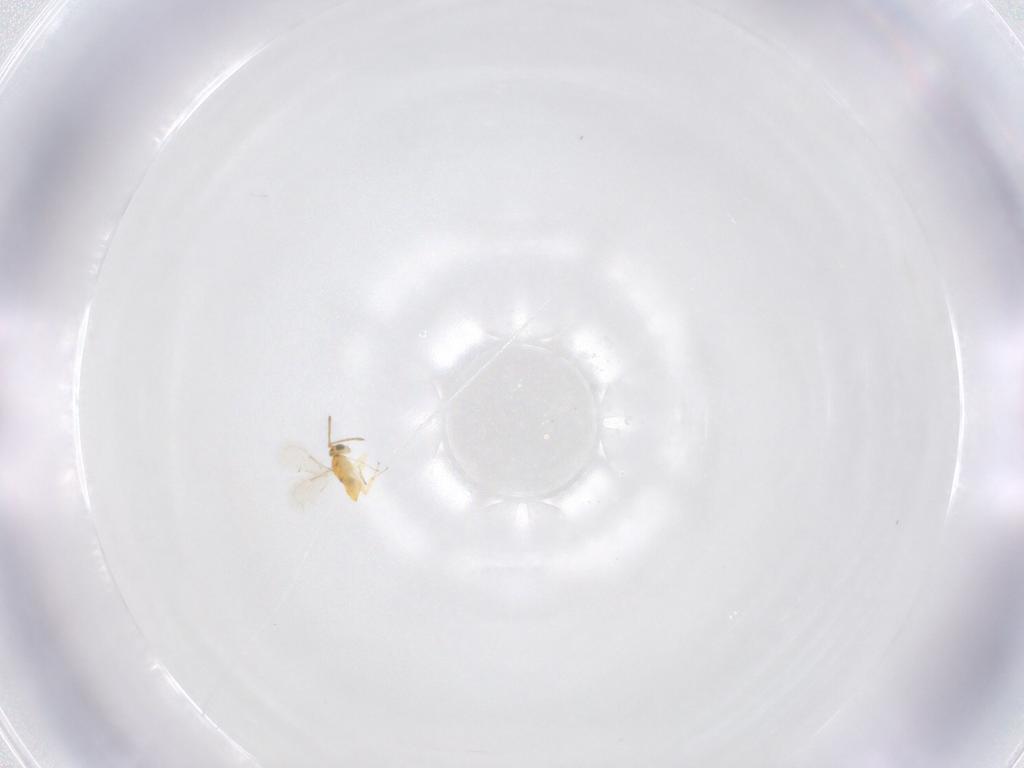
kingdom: Animalia
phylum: Arthropoda
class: Insecta
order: Hymenoptera
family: Aphelinidae
